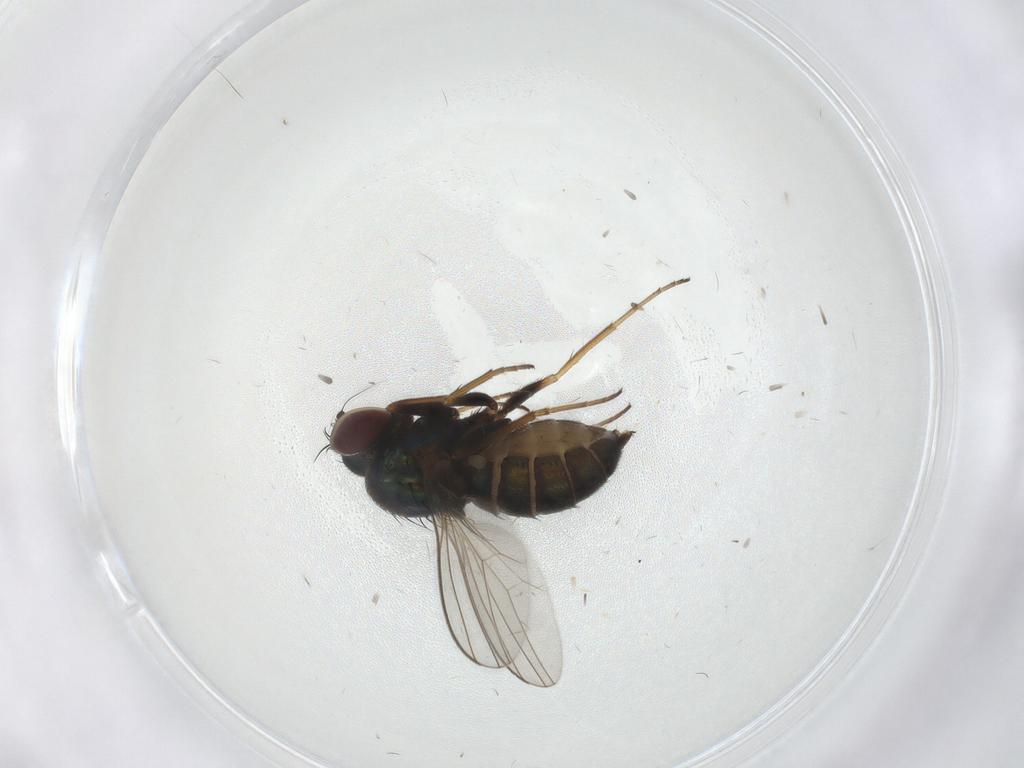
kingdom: Animalia
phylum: Arthropoda
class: Insecta
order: Diptera
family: Dolichopodidae
